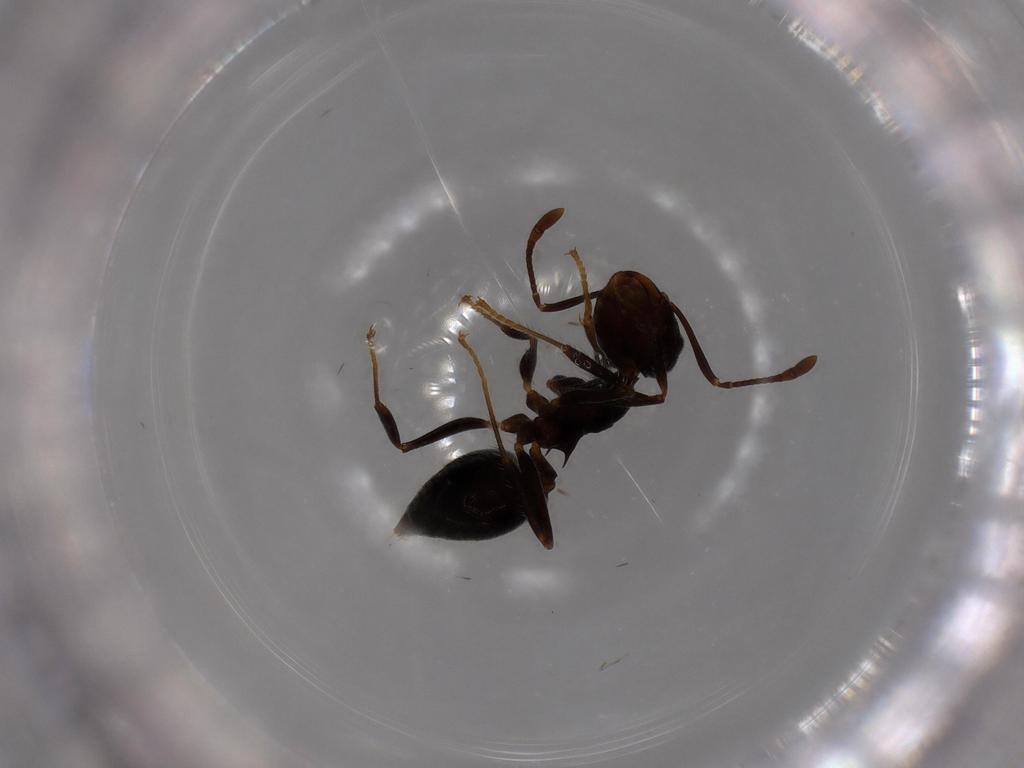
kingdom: Animalia
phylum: Arthropoda
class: Insecta
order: Hymenoptera
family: Formicidae
